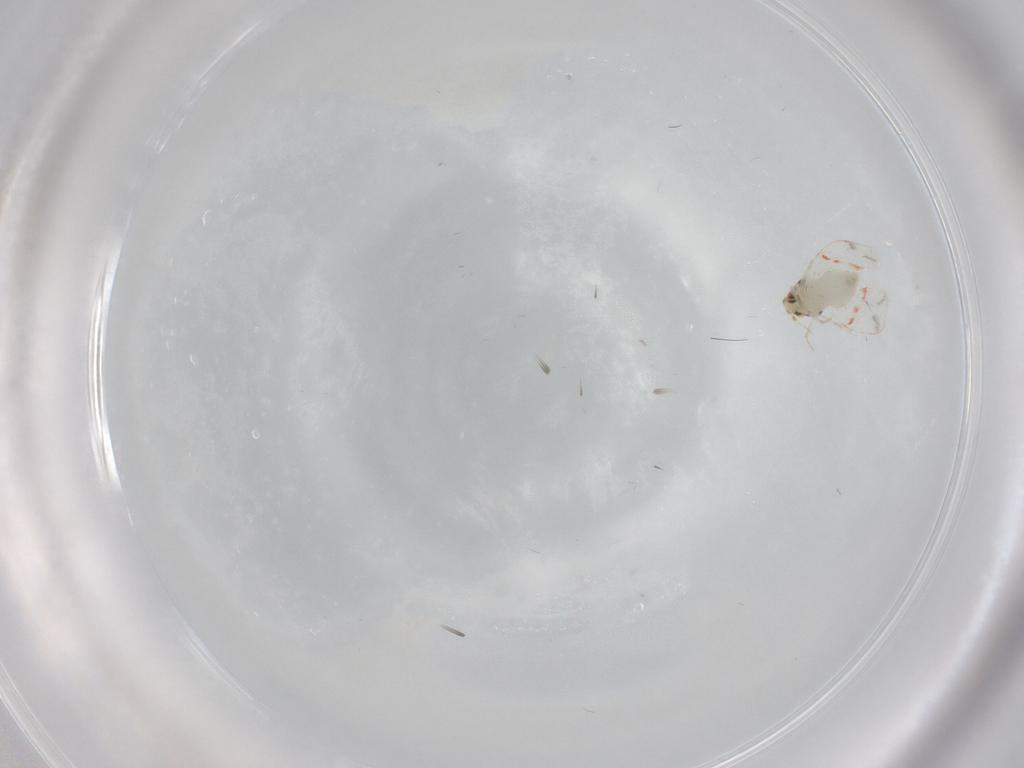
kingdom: Animalia
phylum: Arthropoda
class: Insecta
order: Hemiptera
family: Aleyrodidae
